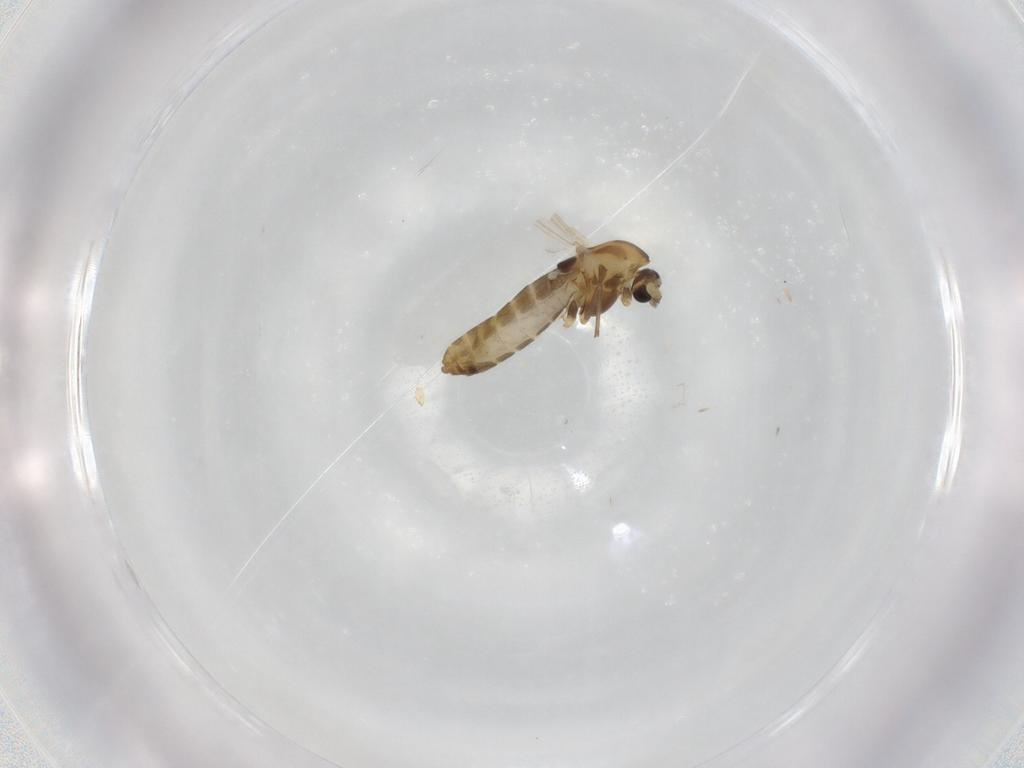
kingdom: Animalia
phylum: Arthropoda
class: Insecta
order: Diptera
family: Chironomidae
